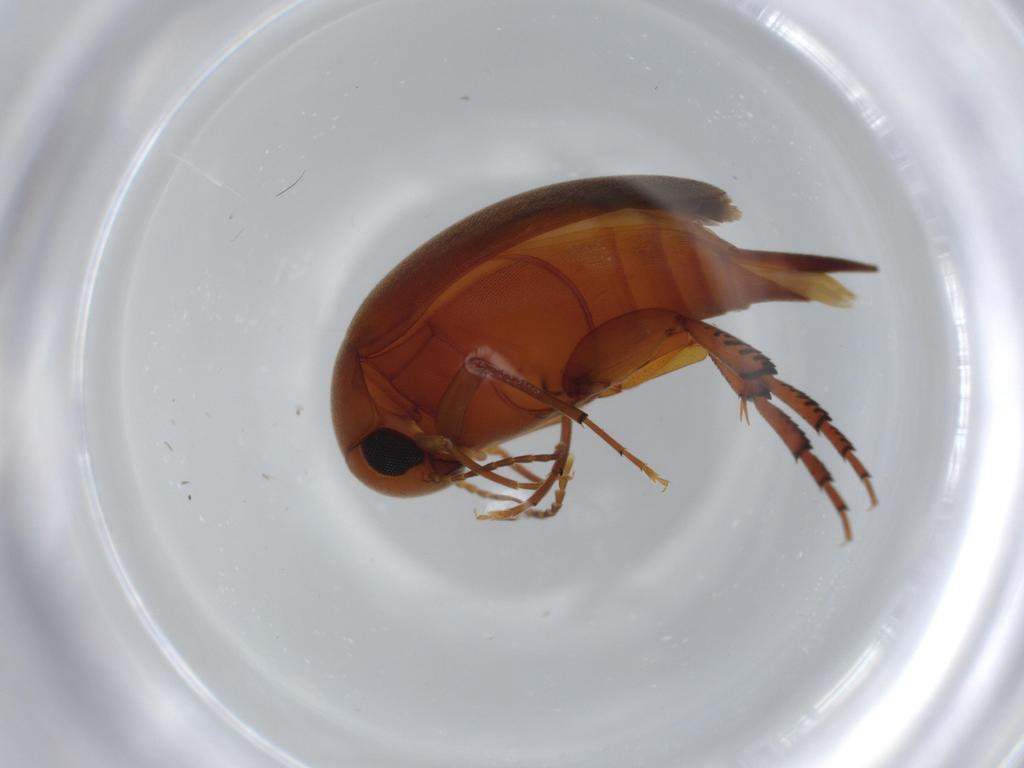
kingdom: Animalia
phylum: Arthropoda
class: Insecta
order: Coleoptera
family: Mordellidae
